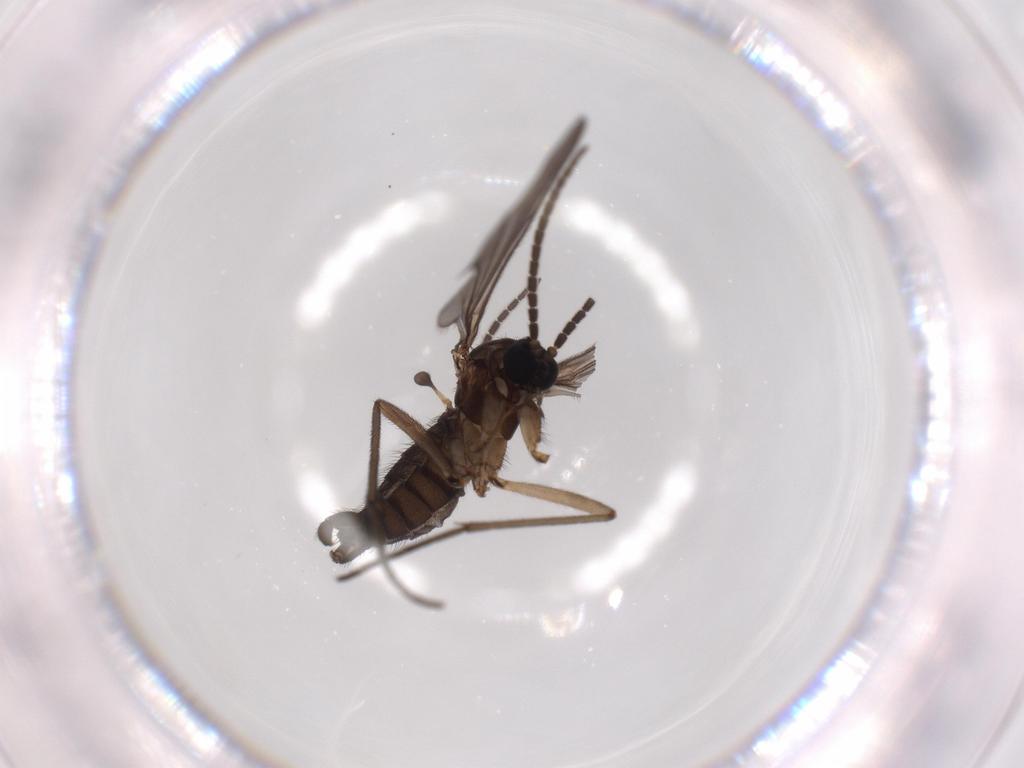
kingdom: Animalia
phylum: Arthropoda
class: Insecta
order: Diptera
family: Sciaridae
